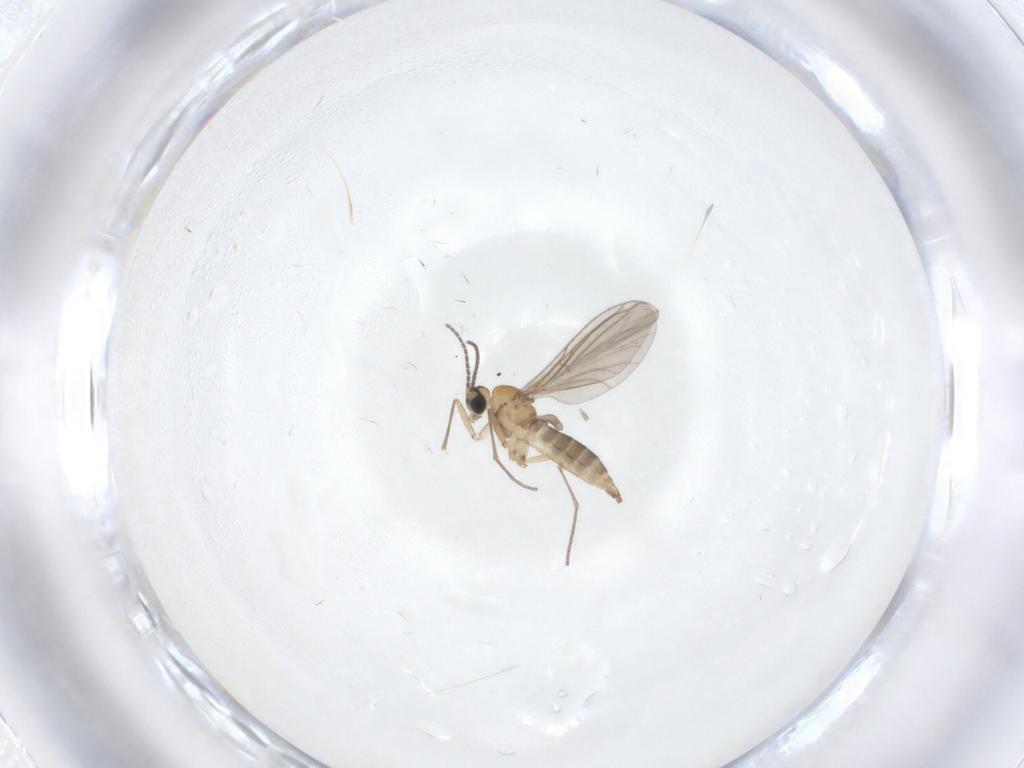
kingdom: Animalia
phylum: Arthropoda
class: Insecta
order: Diptera
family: Sciaridae
